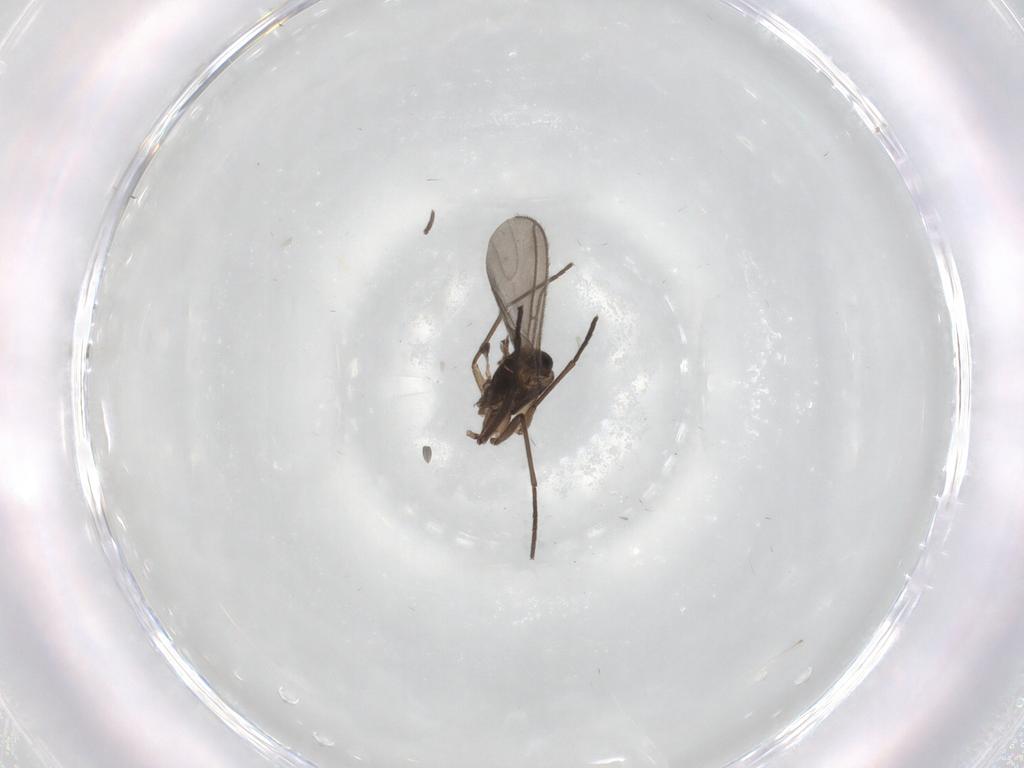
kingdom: Animalia
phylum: Arthropoda
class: Insecta
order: Diptera
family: Sciaridae
